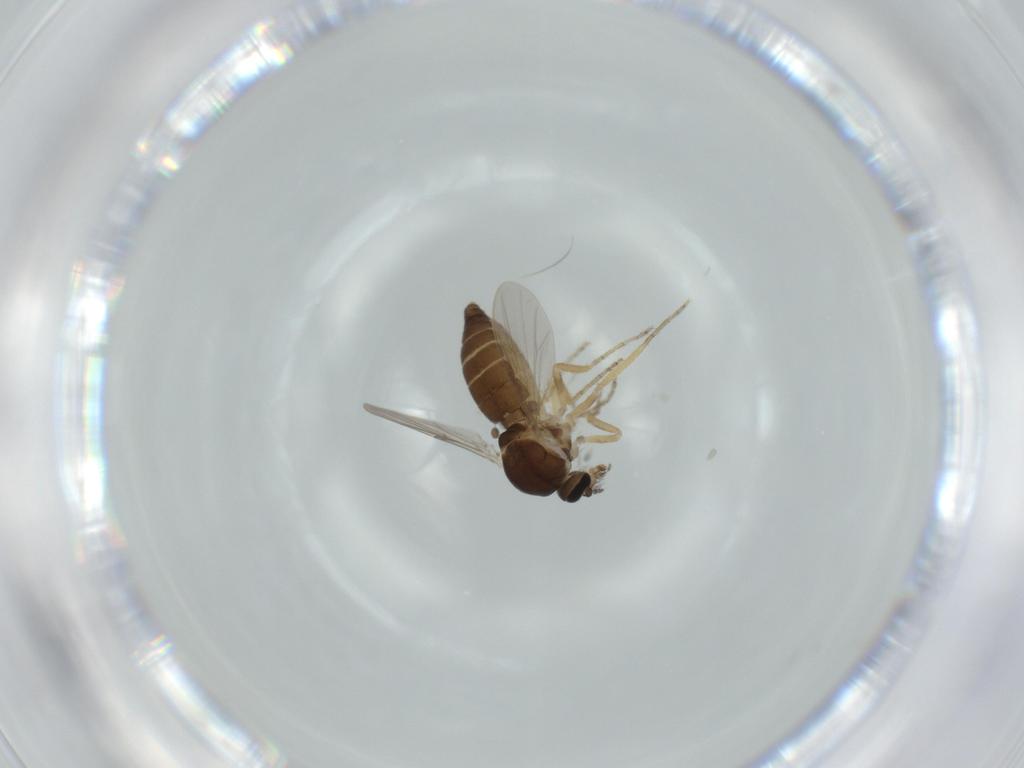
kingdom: Animalia
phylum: Arthropoda
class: Insecta
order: Diptera
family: Ceratopogonidae
